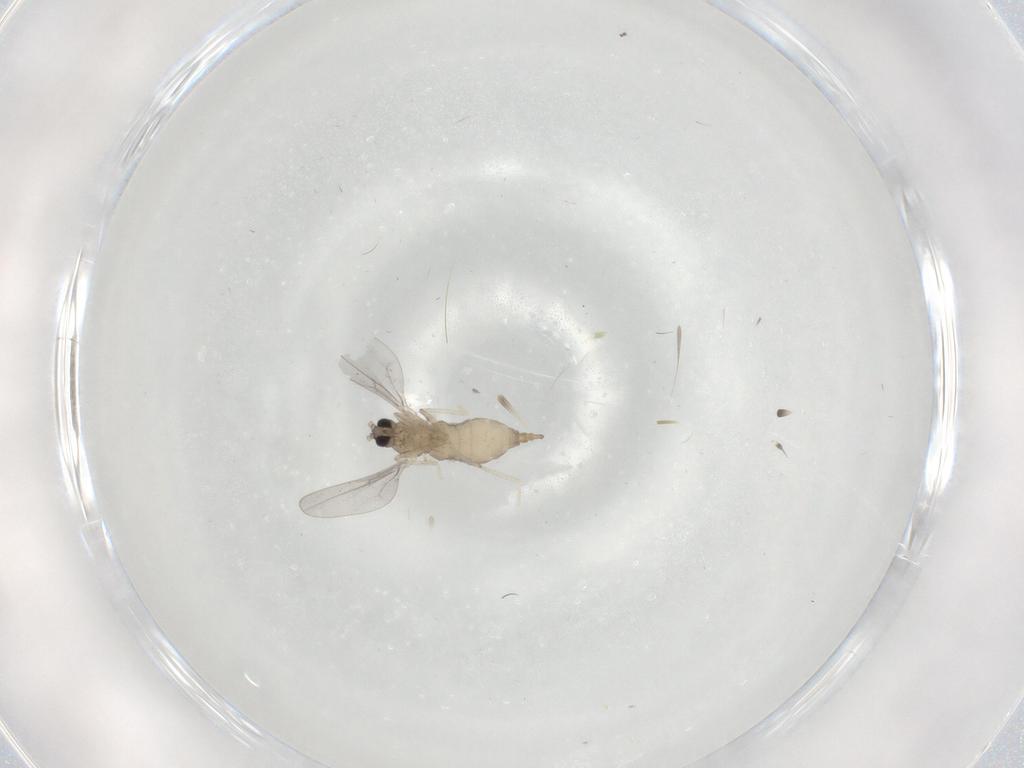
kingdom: Animalia
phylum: Arthropoda
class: Insecta
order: Diptera
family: Cecidomyiidae
